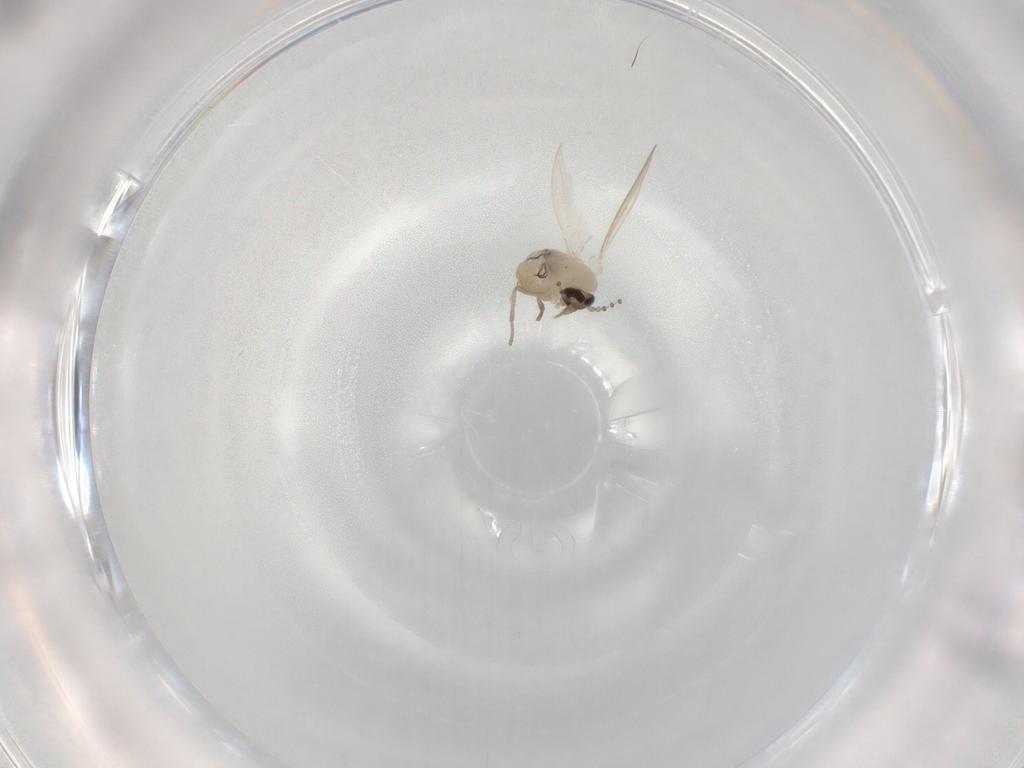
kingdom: Animalia
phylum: Arthropoda
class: Insecta
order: Diptera
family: Psychodidae
